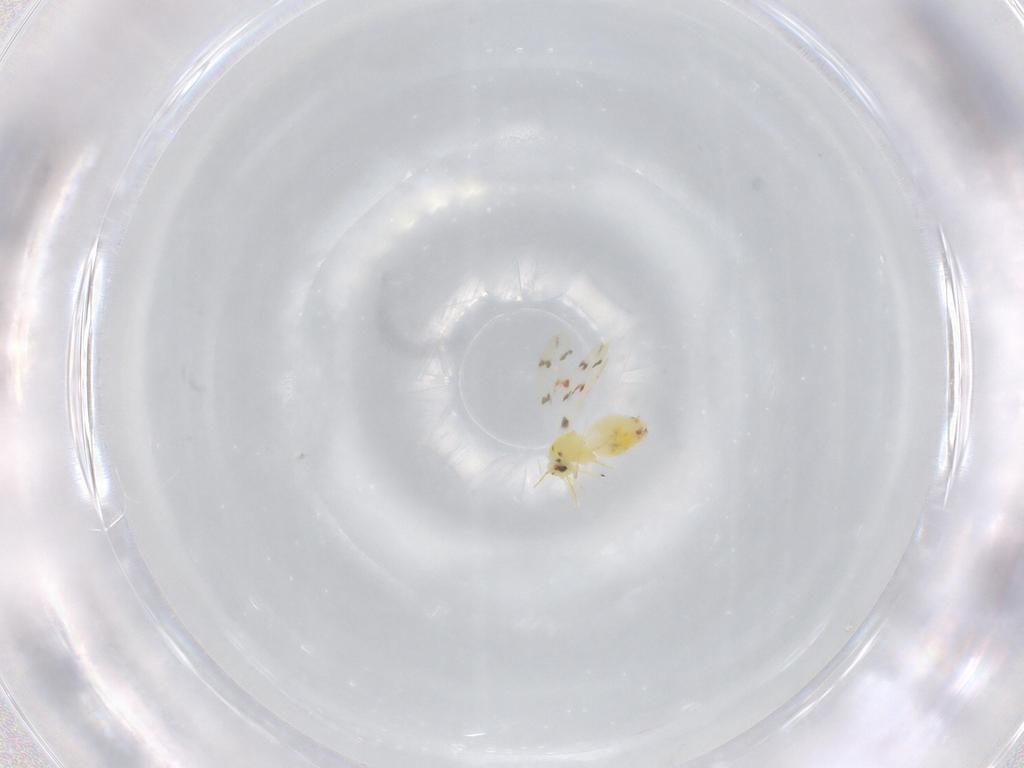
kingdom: Animalia
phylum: Arthropoda
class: Insecta
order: Hemiptera
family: Aleyrodidae
